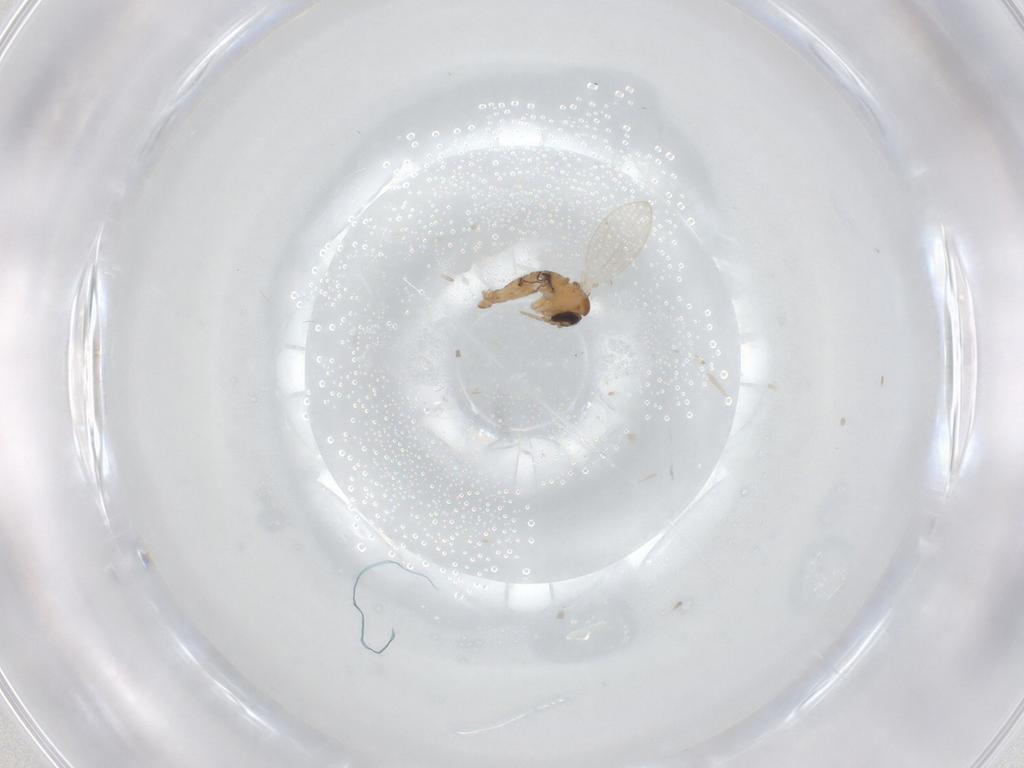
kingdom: Animalia
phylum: Arthropoda
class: Insecta
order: Diptera
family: Psychodidae
